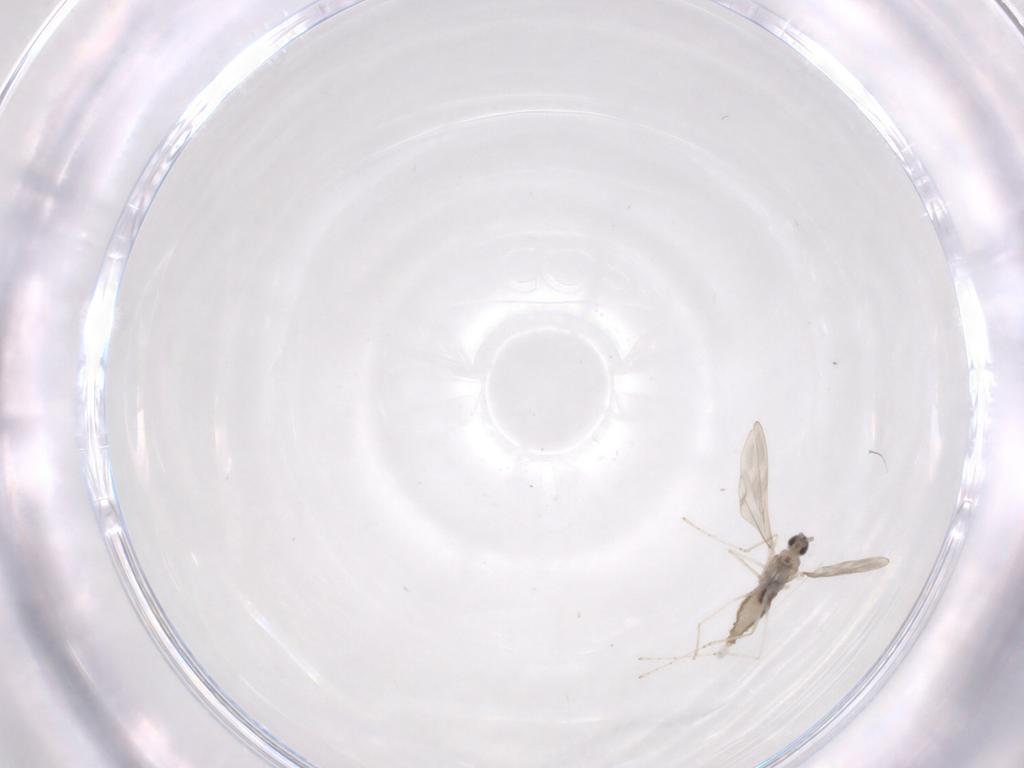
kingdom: Animalia
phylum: Arthropoda
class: Insecta
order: Diptera
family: Cecidomyiidae
